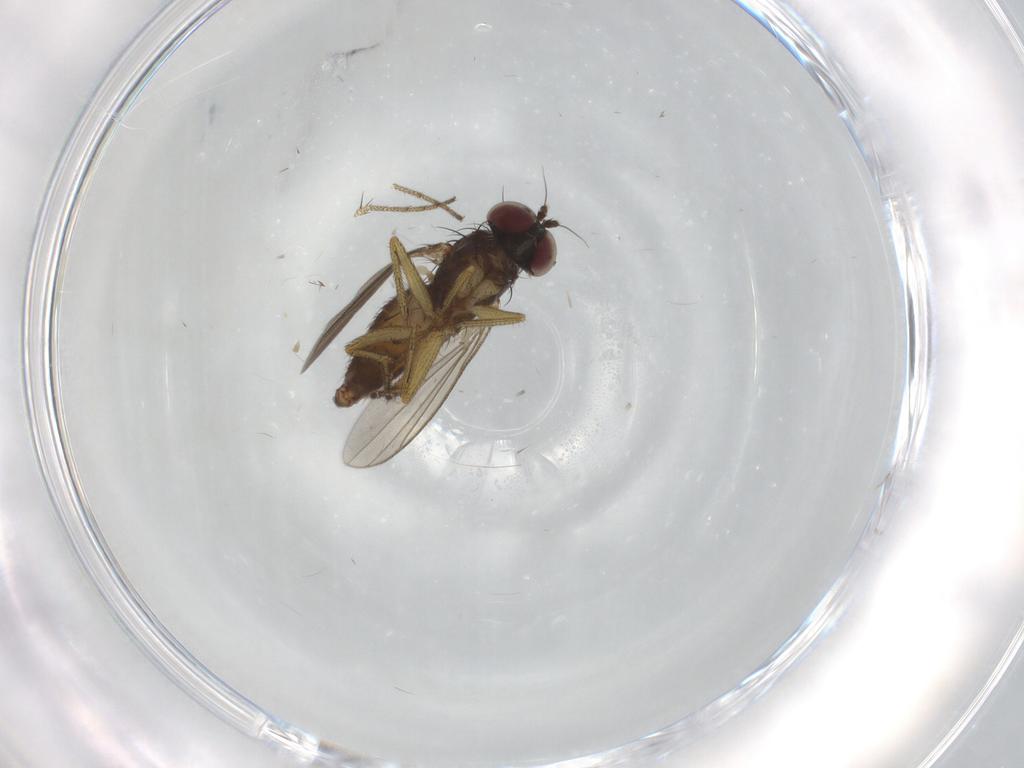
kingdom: Animalia
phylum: Arthropoda
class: Insecta
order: Diptera
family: Dolichopodidae
